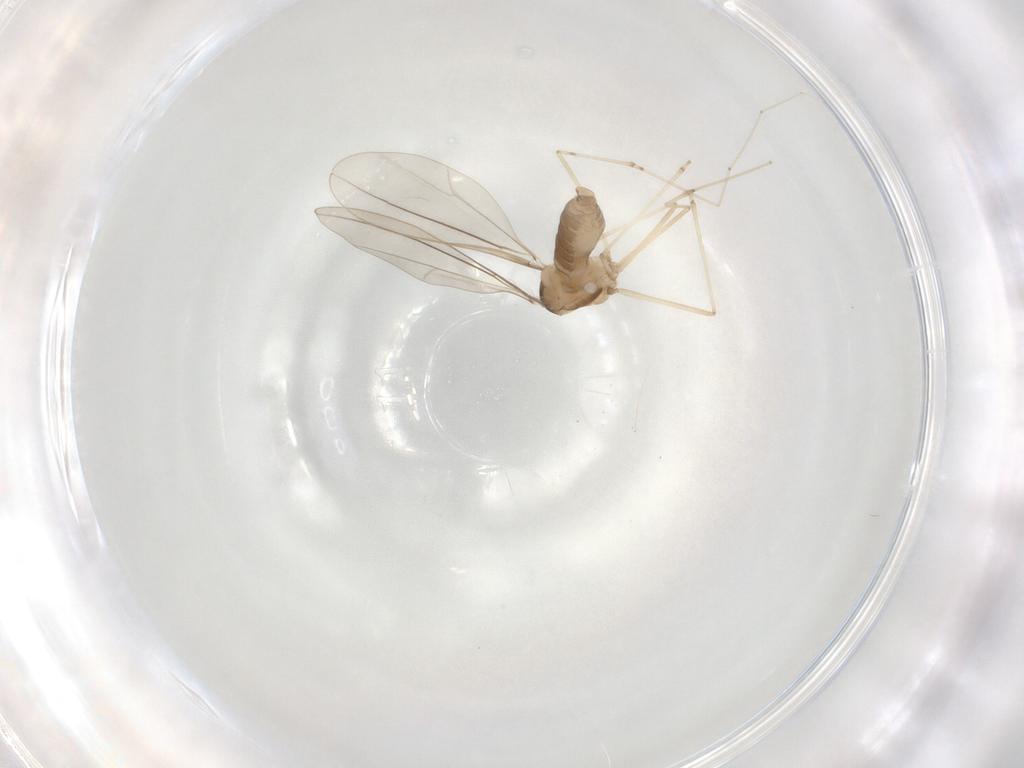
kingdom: Animalia
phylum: Arthropoda
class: Insecta
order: Diptera
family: Cecidomyiidae
